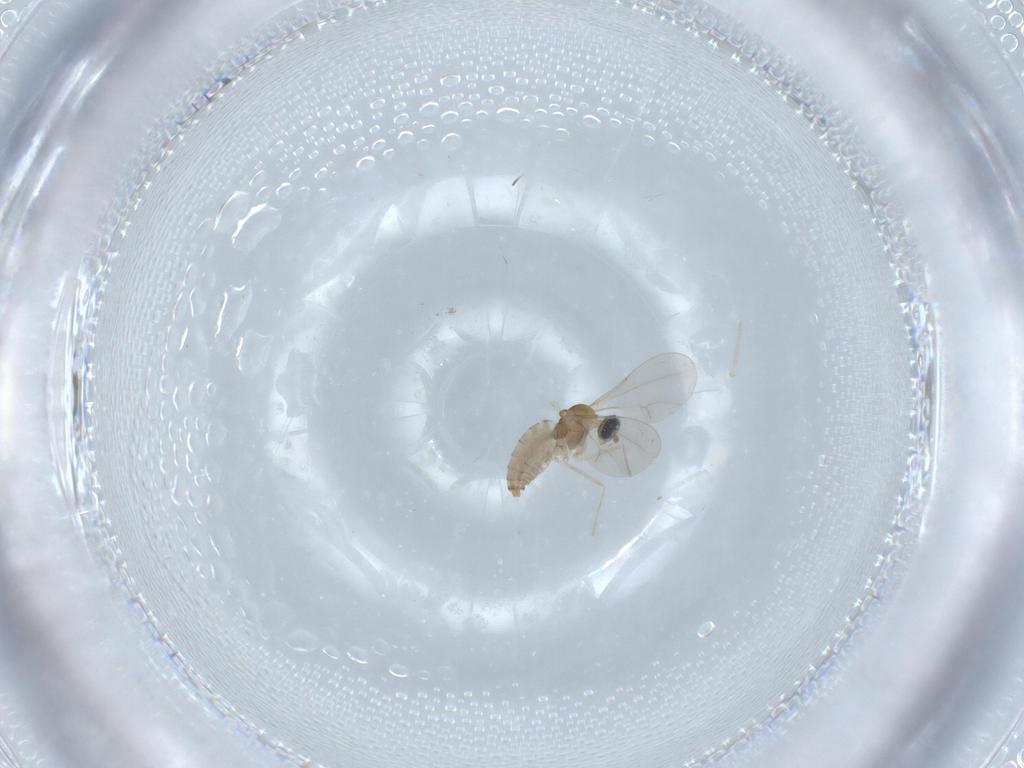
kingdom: Animalia
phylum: Arthropoda
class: Insecta
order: Diptera
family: Cecidomyiidae
